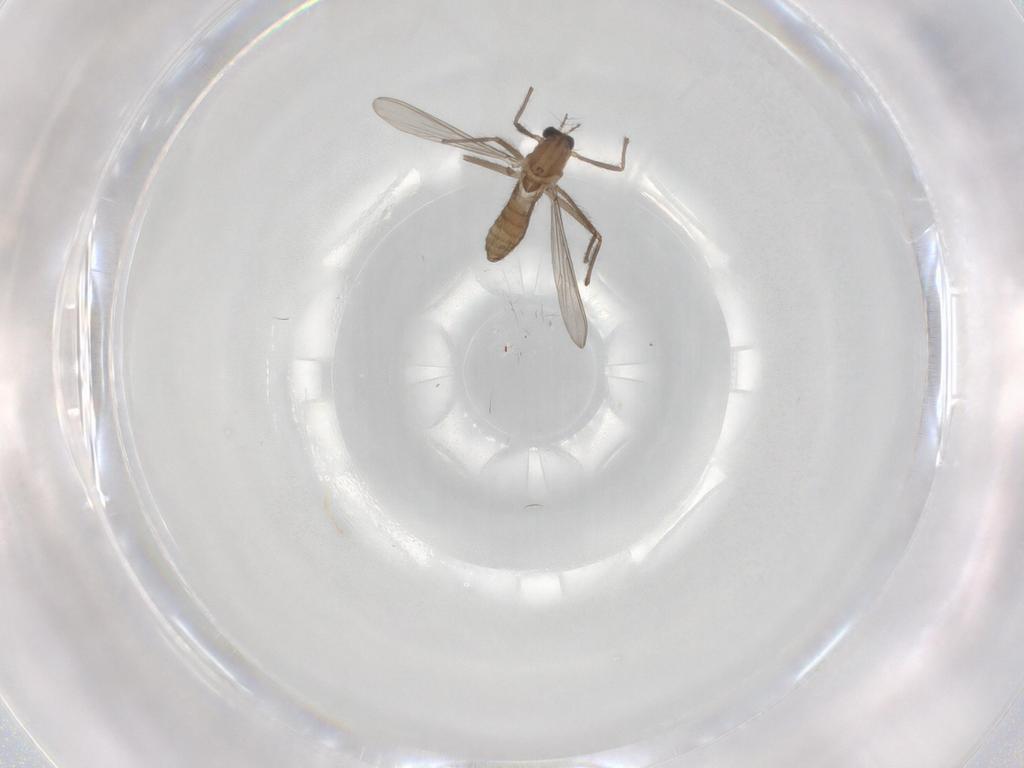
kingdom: Animalia
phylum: Arthropoda
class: Insecta
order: Diptera
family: Chironomidae
